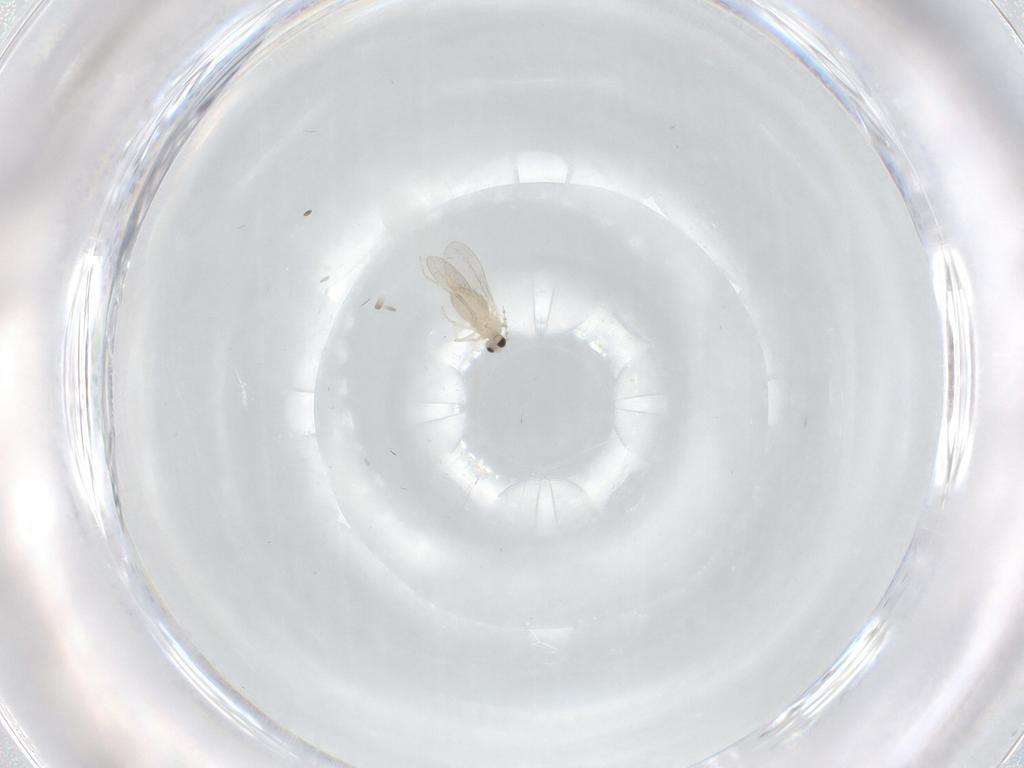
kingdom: Animalia
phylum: Arthropoda
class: Insecta
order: Diptera
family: Cecidomyiidae
